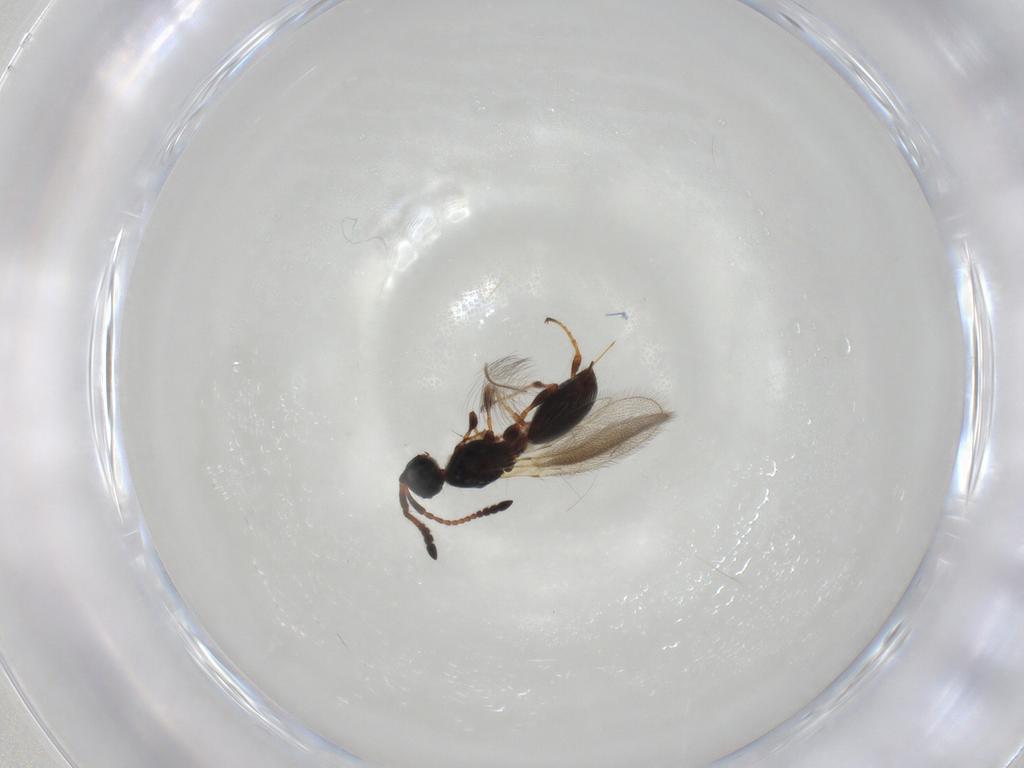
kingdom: Animalia
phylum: Arthropoda
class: Insecta
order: Hymenoptera
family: Diapriidae
